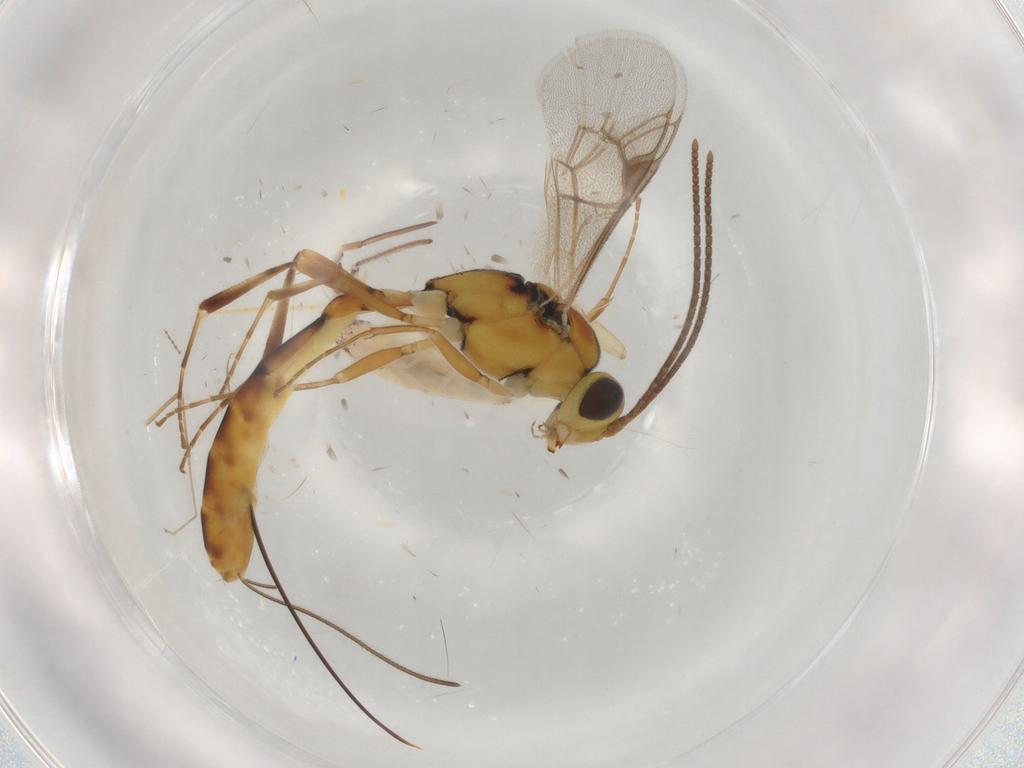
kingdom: Animalia
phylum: Arthropoda
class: Insecta
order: Hymenoptera
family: Ichneumonidae
